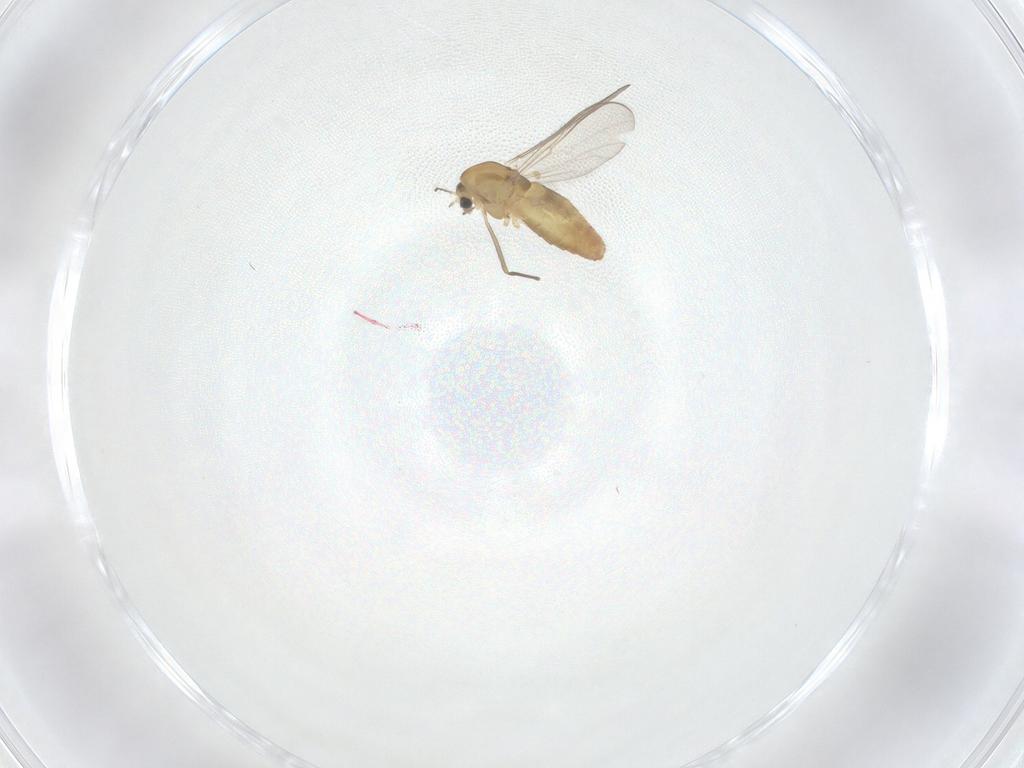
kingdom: Animalia
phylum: Arthropoda
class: Insecta
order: Diptera
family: Chironomidae
